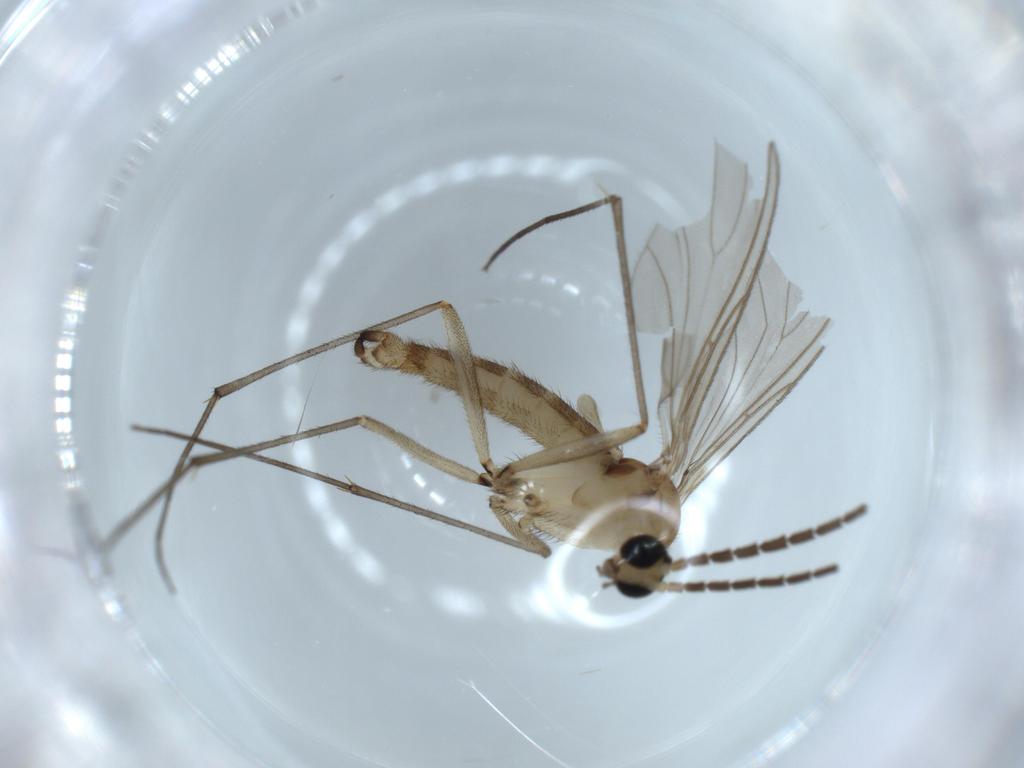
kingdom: Animalia
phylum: Arthropoda
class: Insecta
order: Diptera
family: Sciaridae
